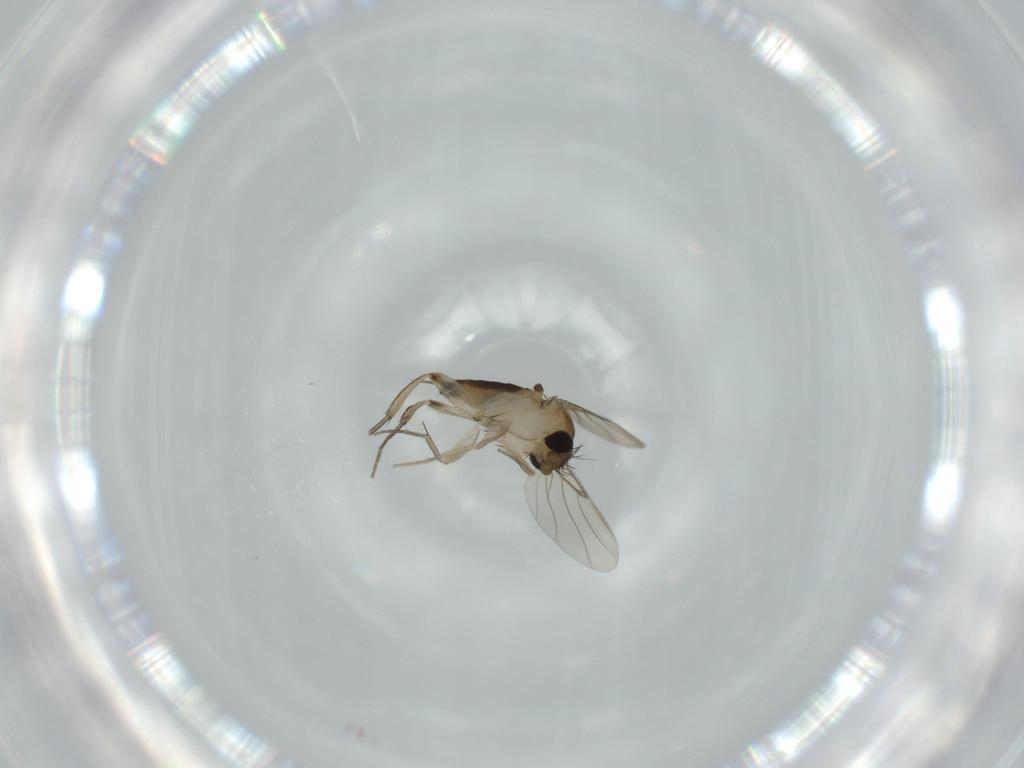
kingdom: Animalia
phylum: Arthropoda
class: Insecta
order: Diptera
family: Phoridae
